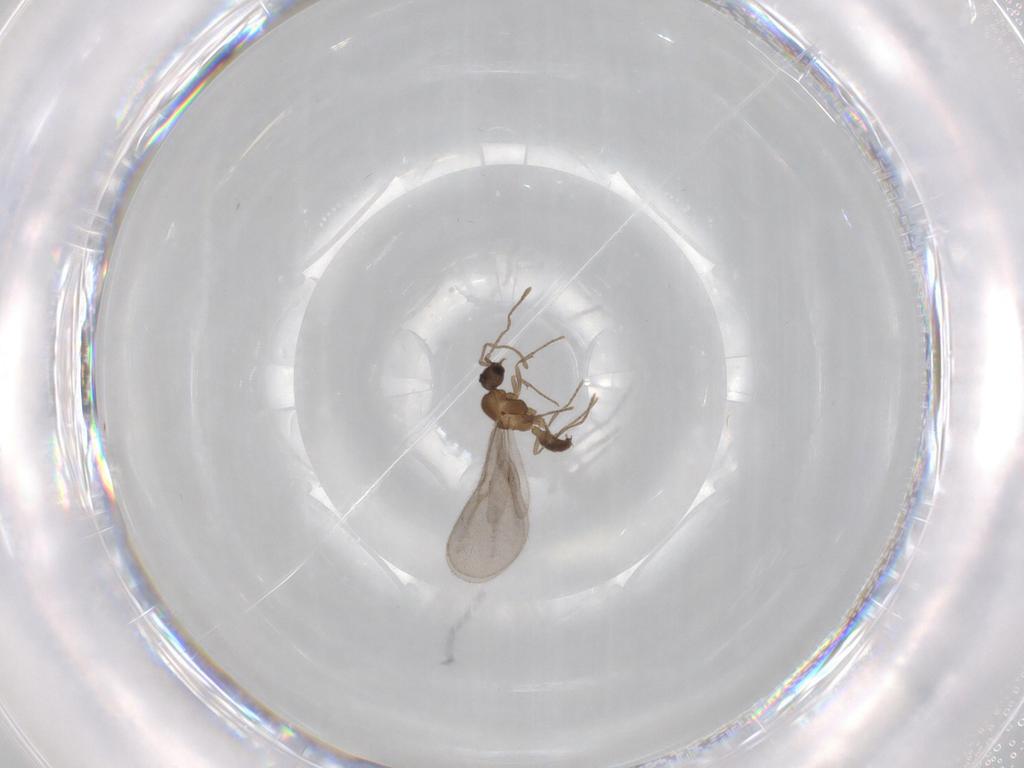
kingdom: Animalia
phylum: Arthropoda
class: Insecta
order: Hymenoptera
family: Formicidae
